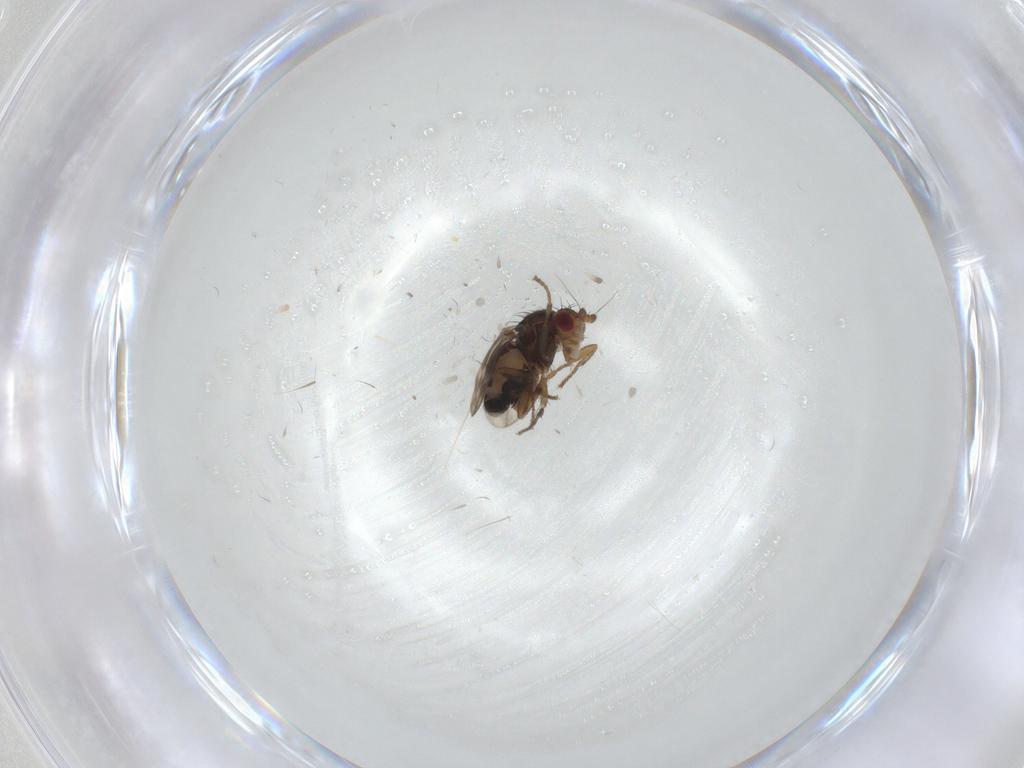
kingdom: Animalia
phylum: Arthropoda
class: Insecta
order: Diptera
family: Sphaeroceridae
